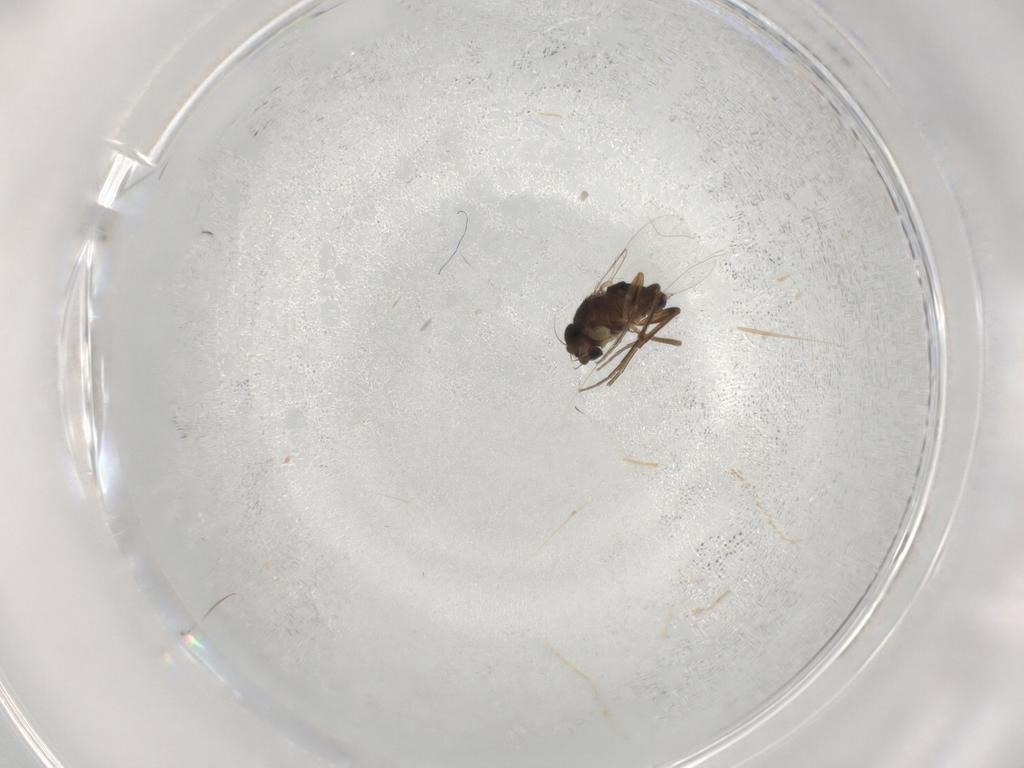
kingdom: Animalia
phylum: Arthropoda
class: Insecta
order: Diptera
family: Phoridae
